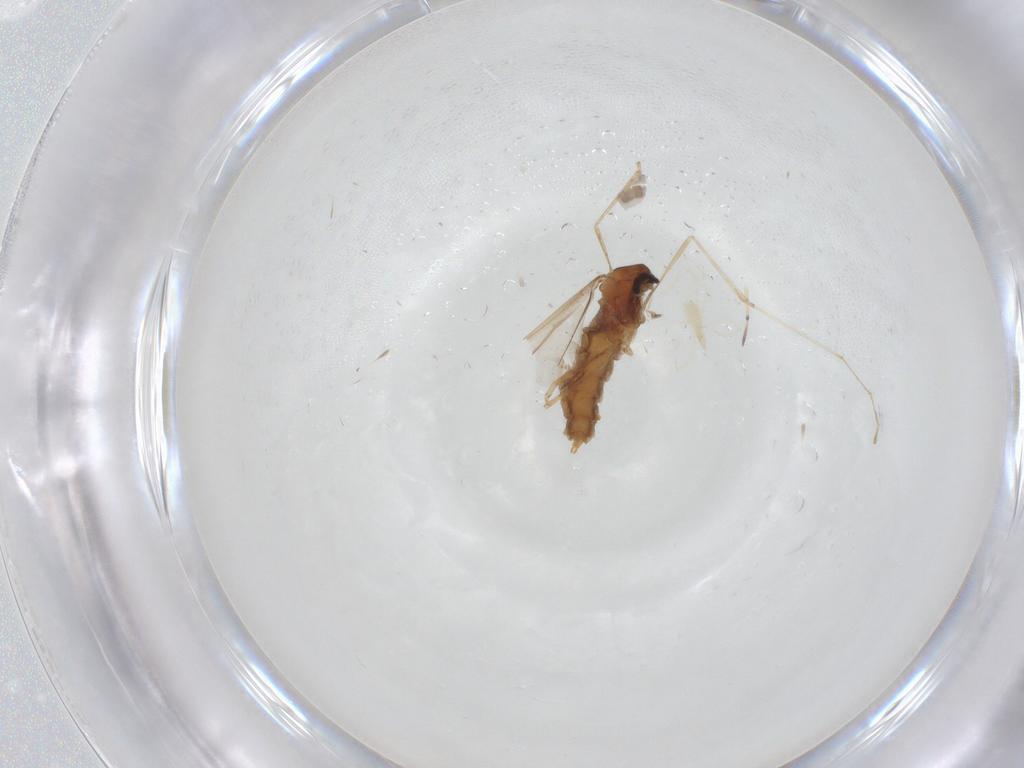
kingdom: Animalia
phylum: Arthropoda
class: Insecta
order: Diptera
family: Cecidomyiidae
